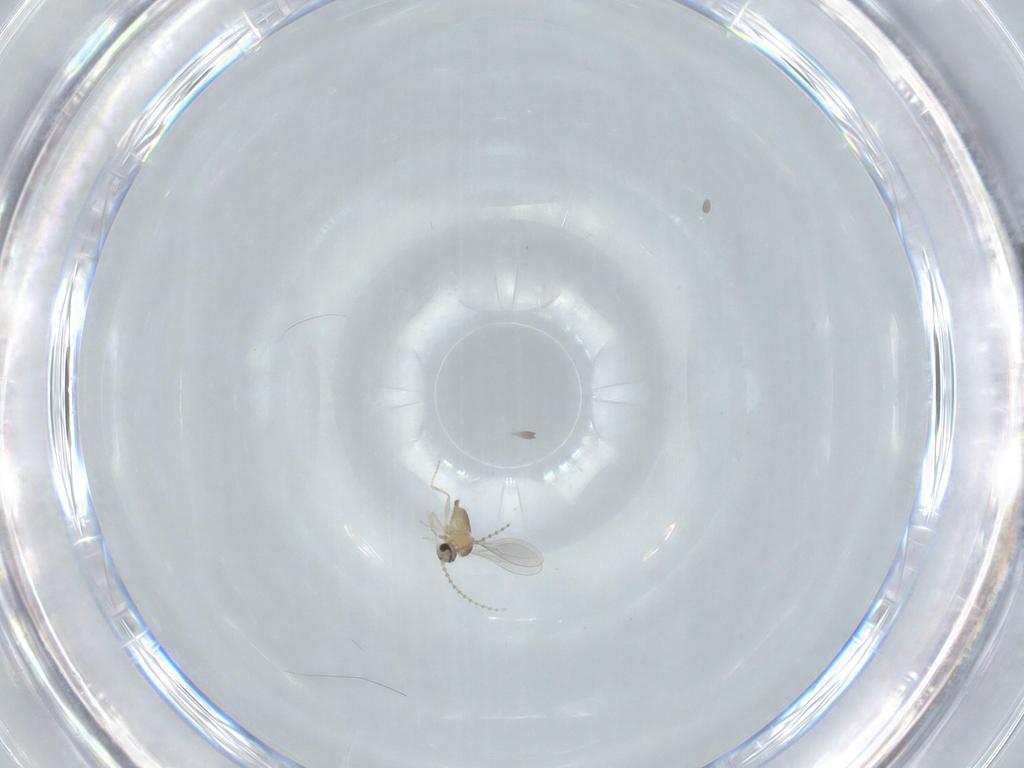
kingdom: Animalia
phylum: Arthropoda
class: Insecta
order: Diptera
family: Cecidomyiidae
